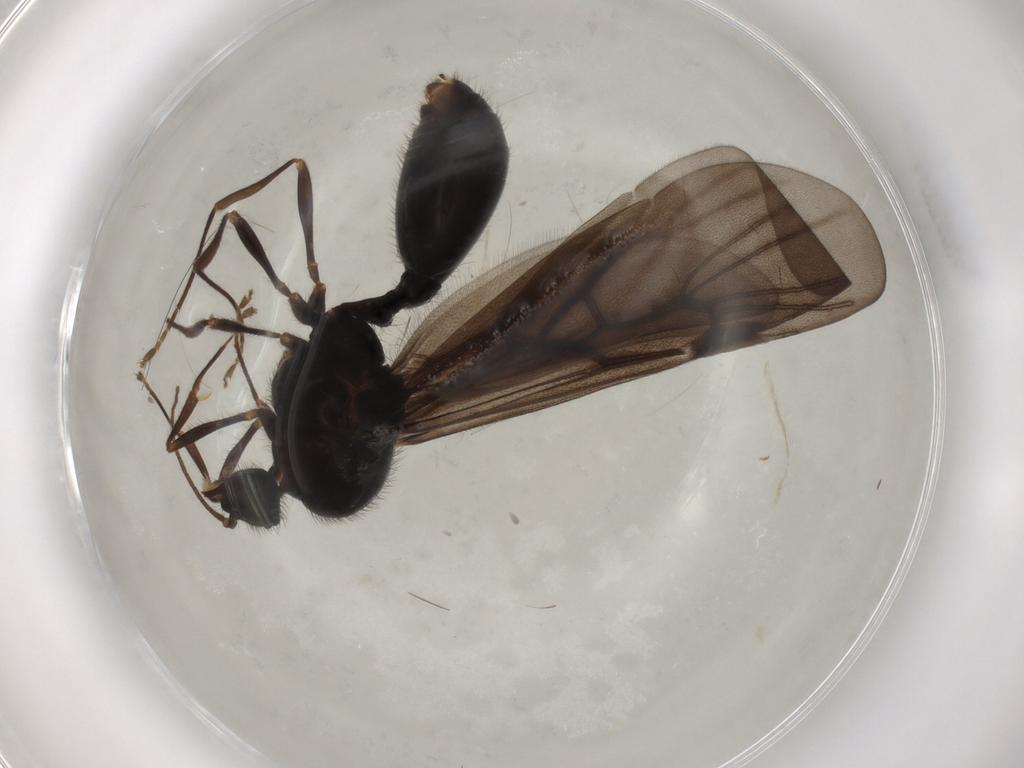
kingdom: Animalia
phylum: Arthropoda
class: Insecta
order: Hymenoptera
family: Formicidae
